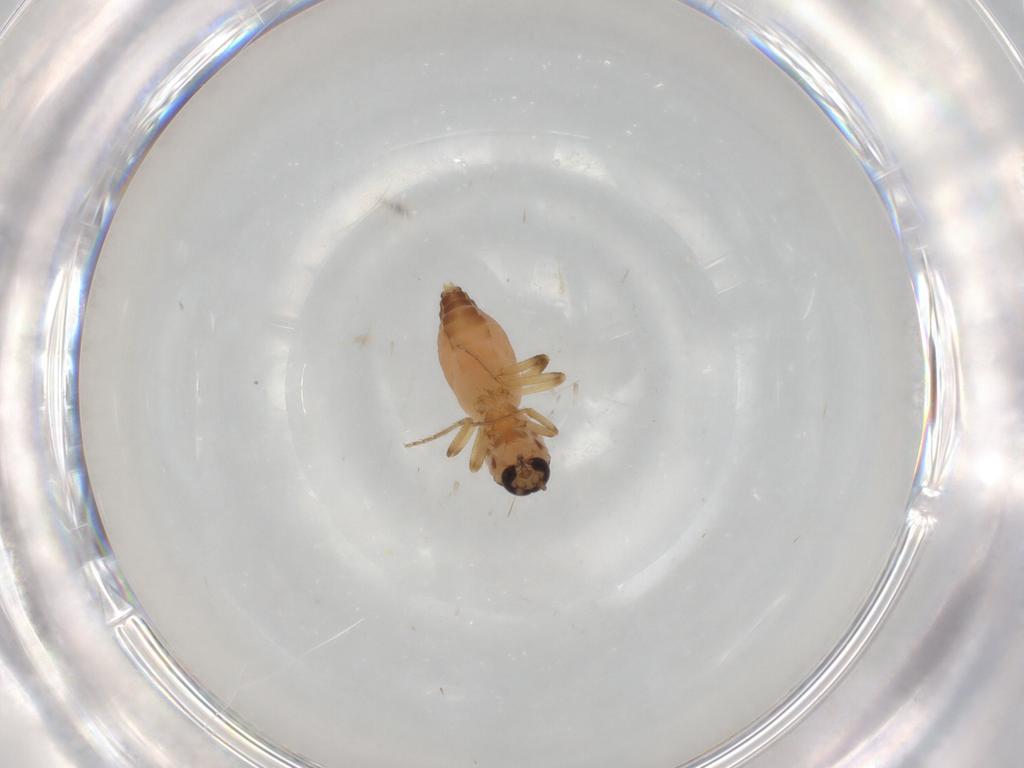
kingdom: Animalia
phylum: Arthropoda
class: Insecta
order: Diptera
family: Ceratopogonidae
